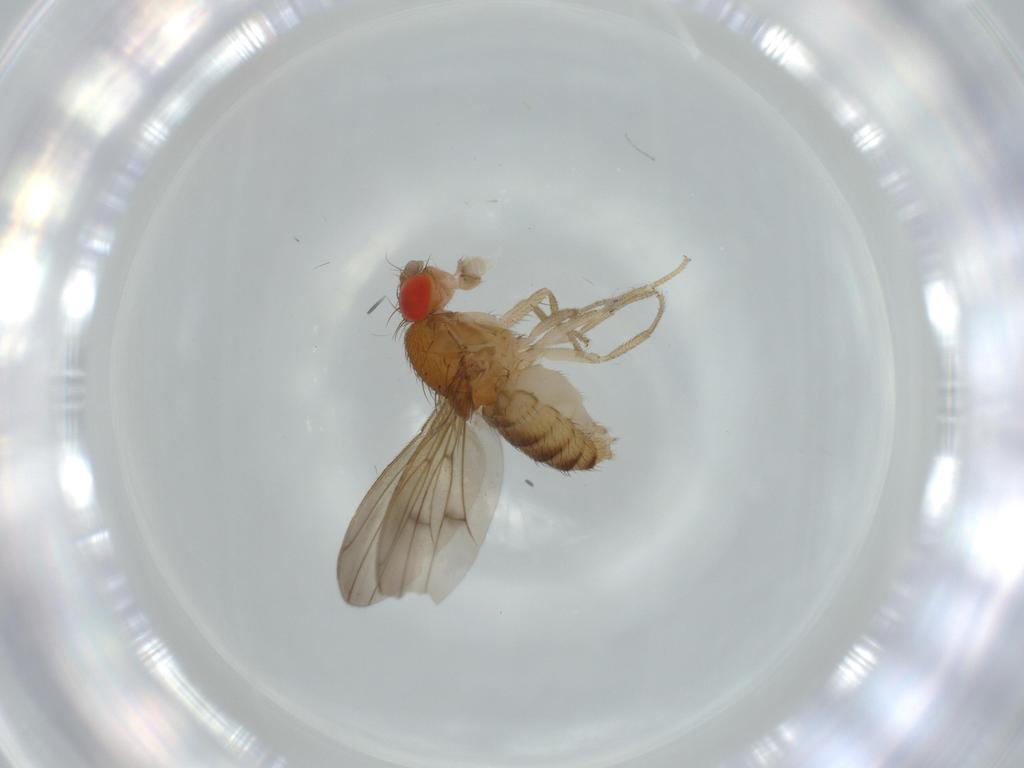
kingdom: Animalia
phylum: Arthropoda
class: Insecta
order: Diptera
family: Drosophilidae
